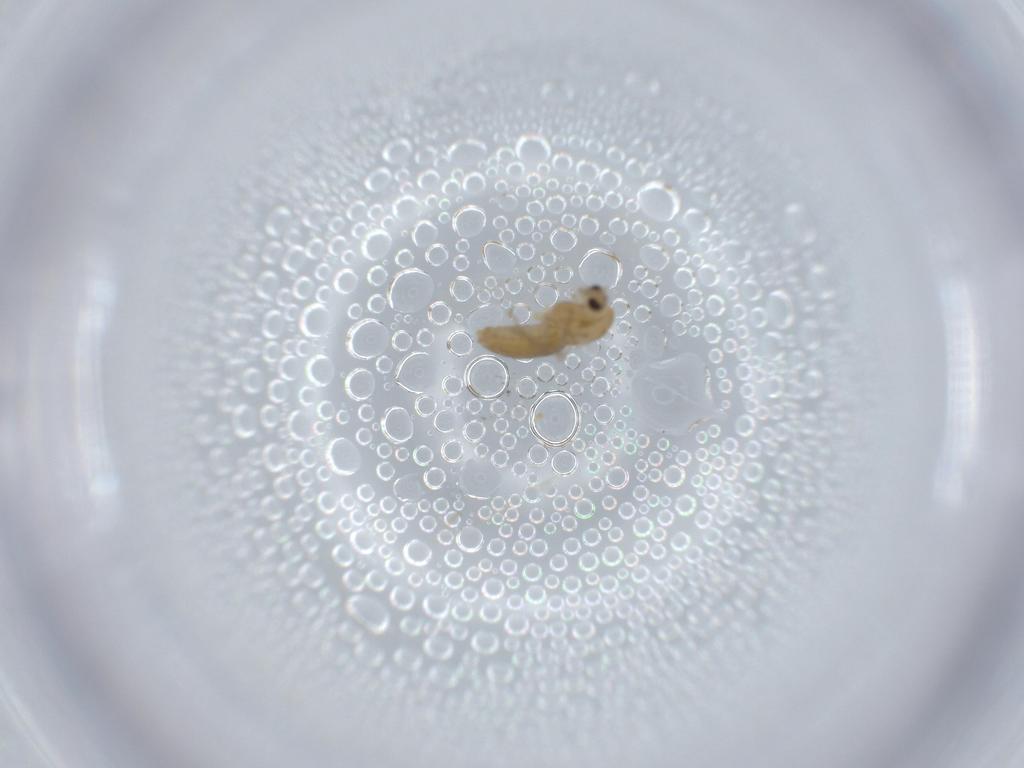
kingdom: Animalia
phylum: Arthropoda
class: Insecta
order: Diptera
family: Chironomidae
